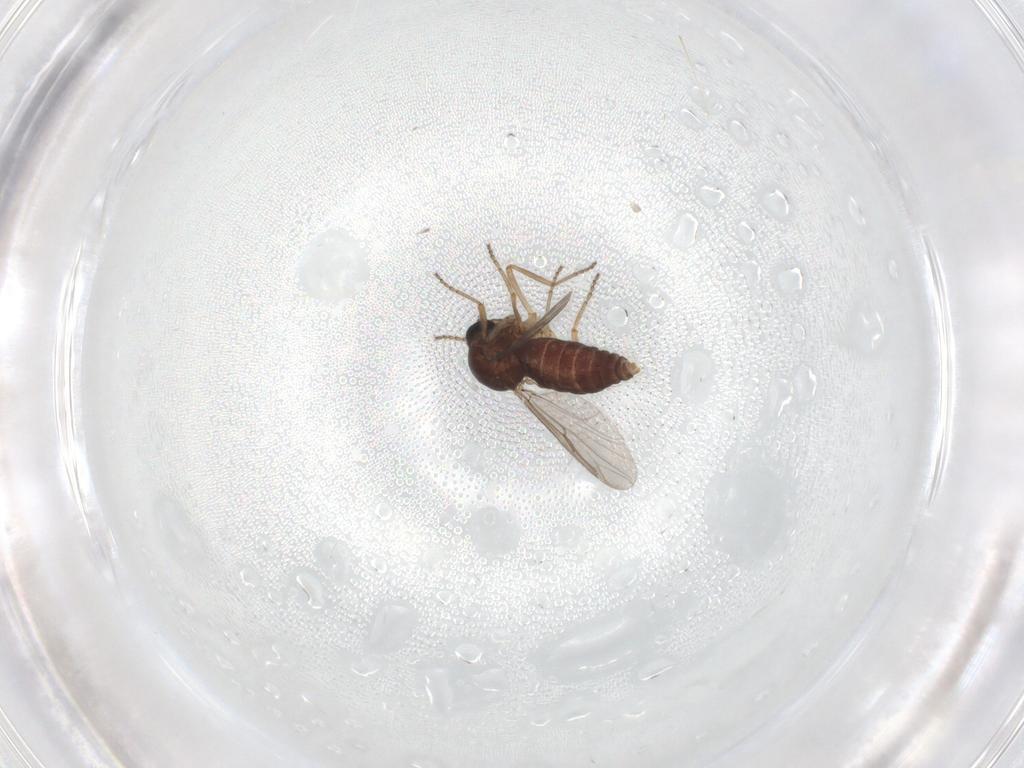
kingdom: Animalia
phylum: Arthropoda
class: Insecta
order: Diptera
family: Ceratopogonidae
